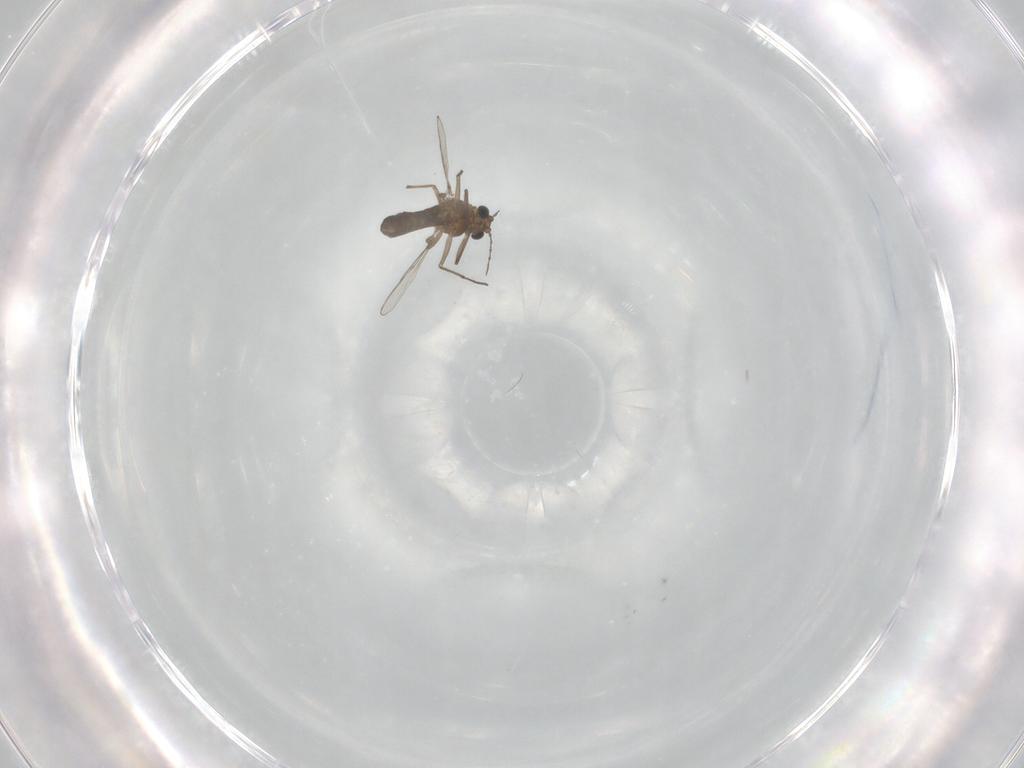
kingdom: Animalia
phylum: Arthropoda
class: Insecta
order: Diptera
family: Chironomidae
